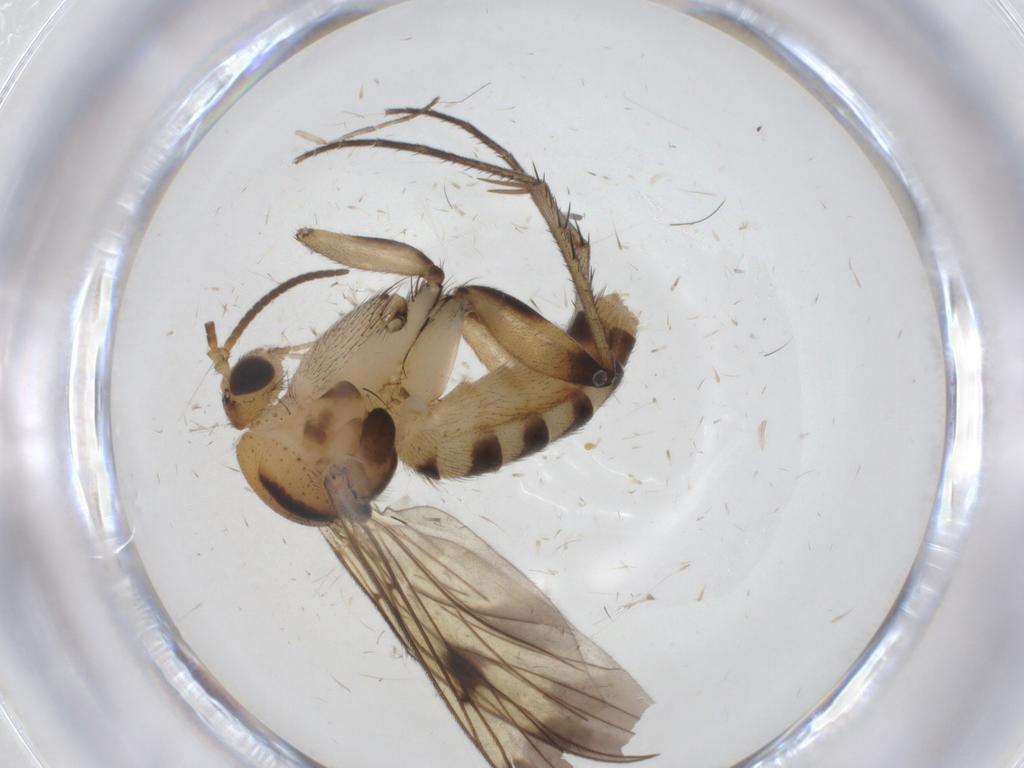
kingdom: Animalia
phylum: Arthropoda
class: Insecta
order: Diptera
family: Mycetophilidae
